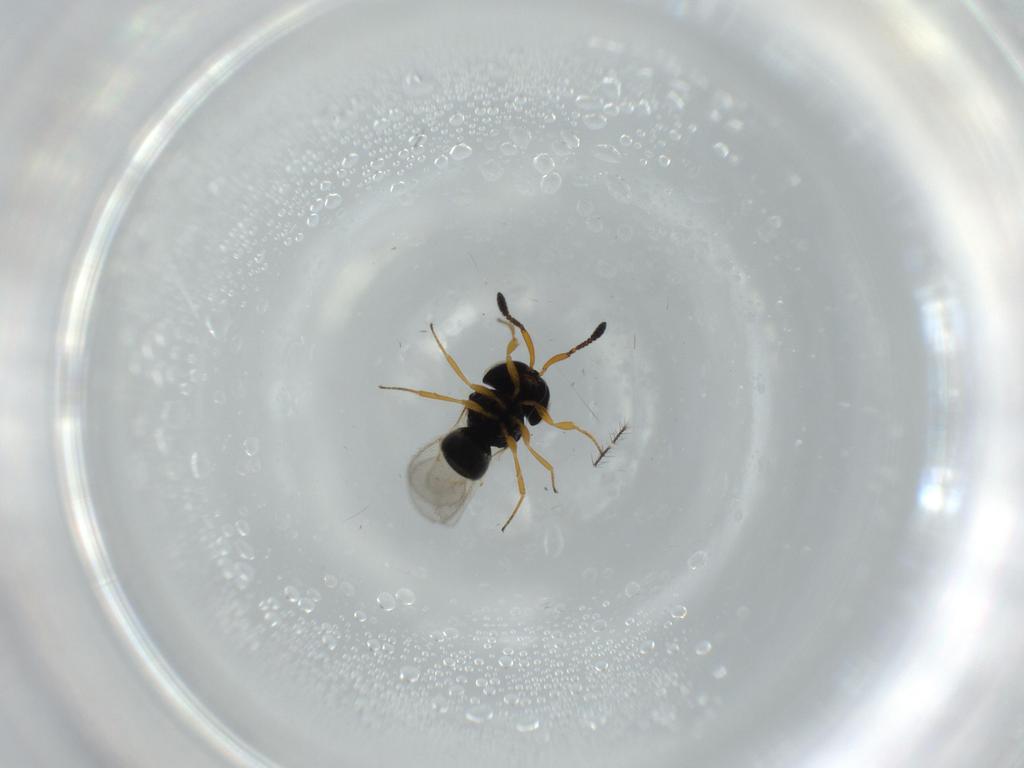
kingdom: Animalia
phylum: Arthropoda
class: Insecta
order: Hymenoptera
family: Scelionidae
